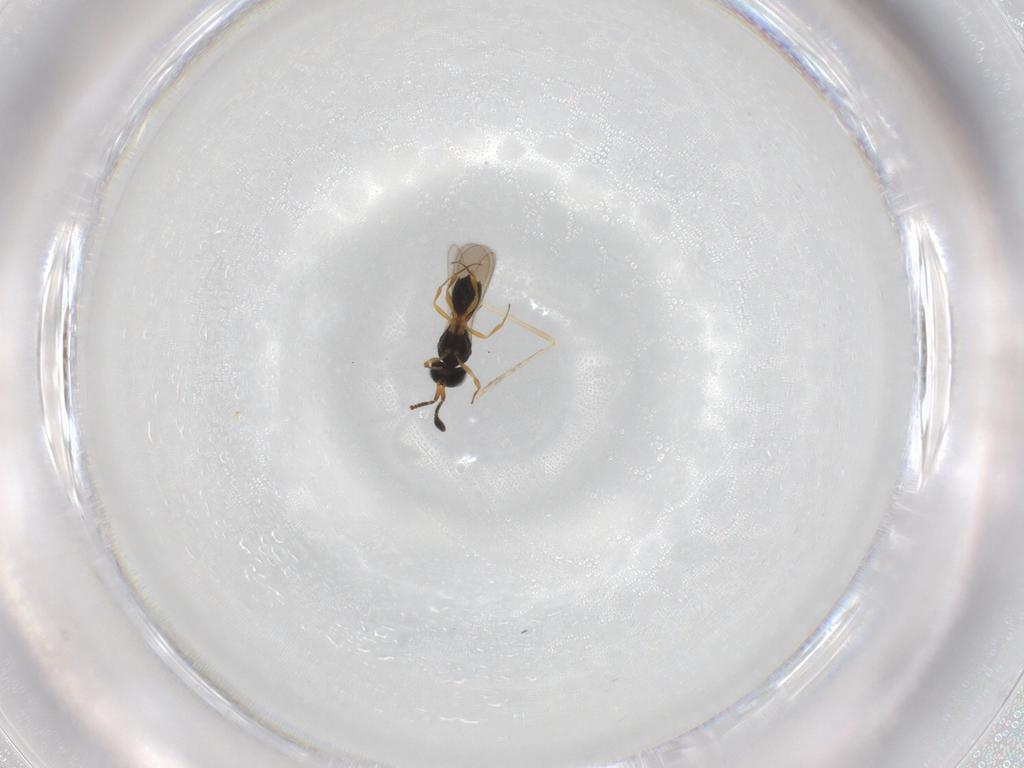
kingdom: Animalia
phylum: Arthropoda
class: Insecta
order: Hymenoptera
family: Scelionidae
